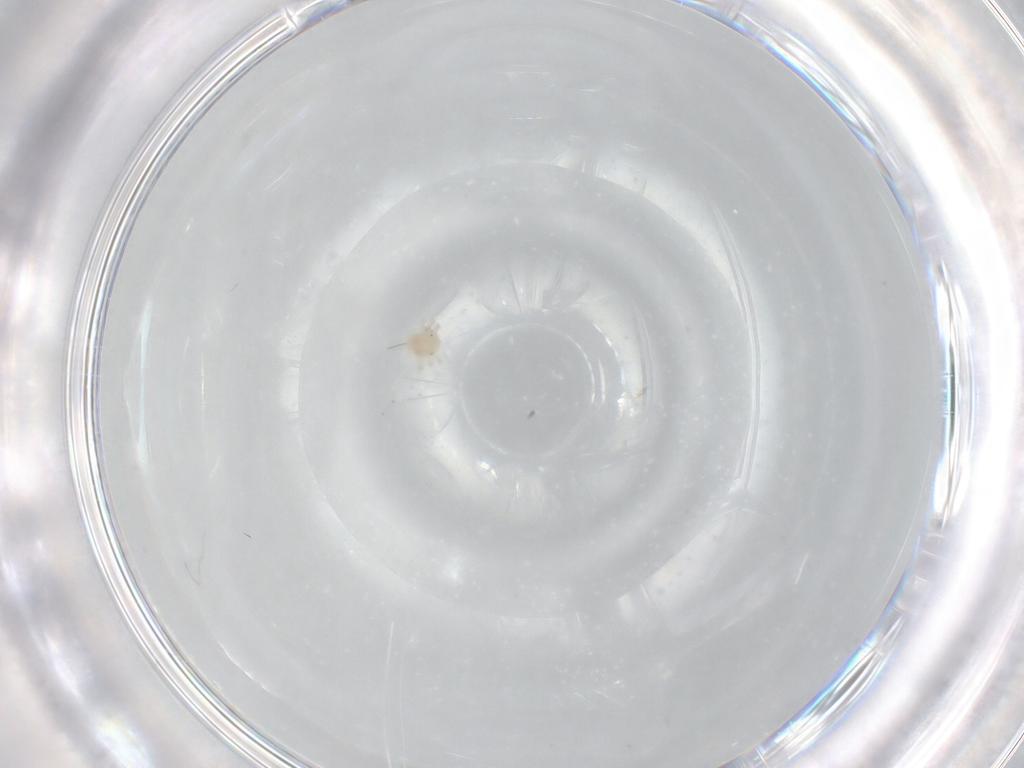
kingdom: Animalia
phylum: Arthropoda
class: Arachnida
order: Trombidiformes
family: Anystidae
